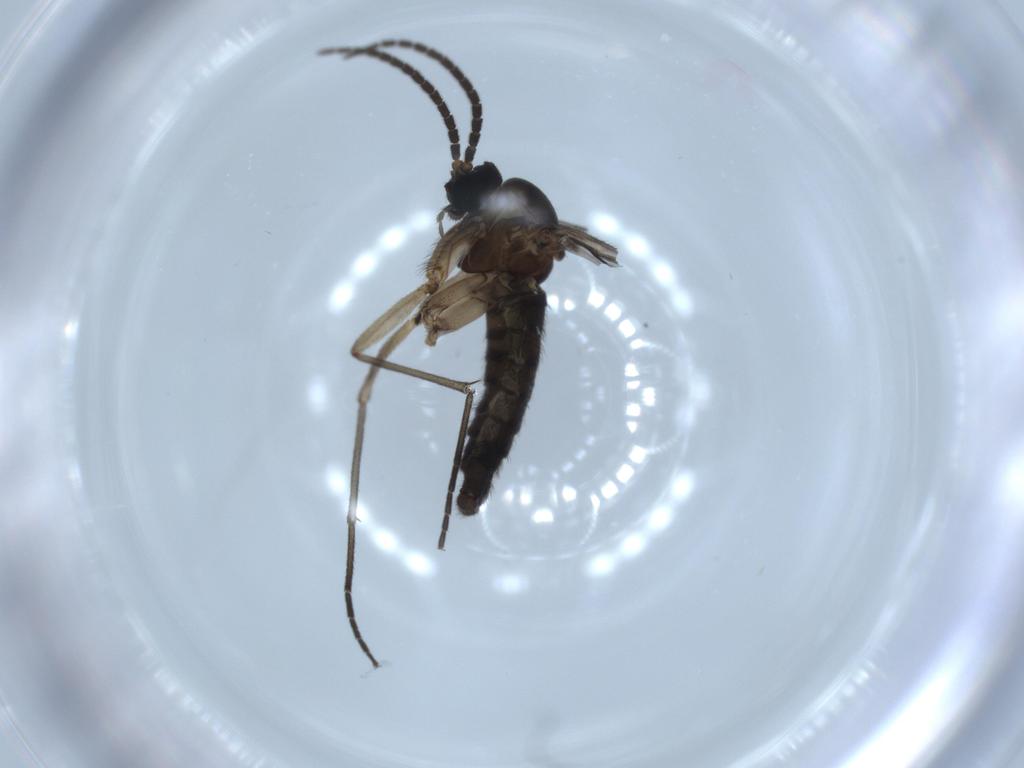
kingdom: Animalia
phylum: Arthropoda
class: Insecta
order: Diptera
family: Sciaridae
